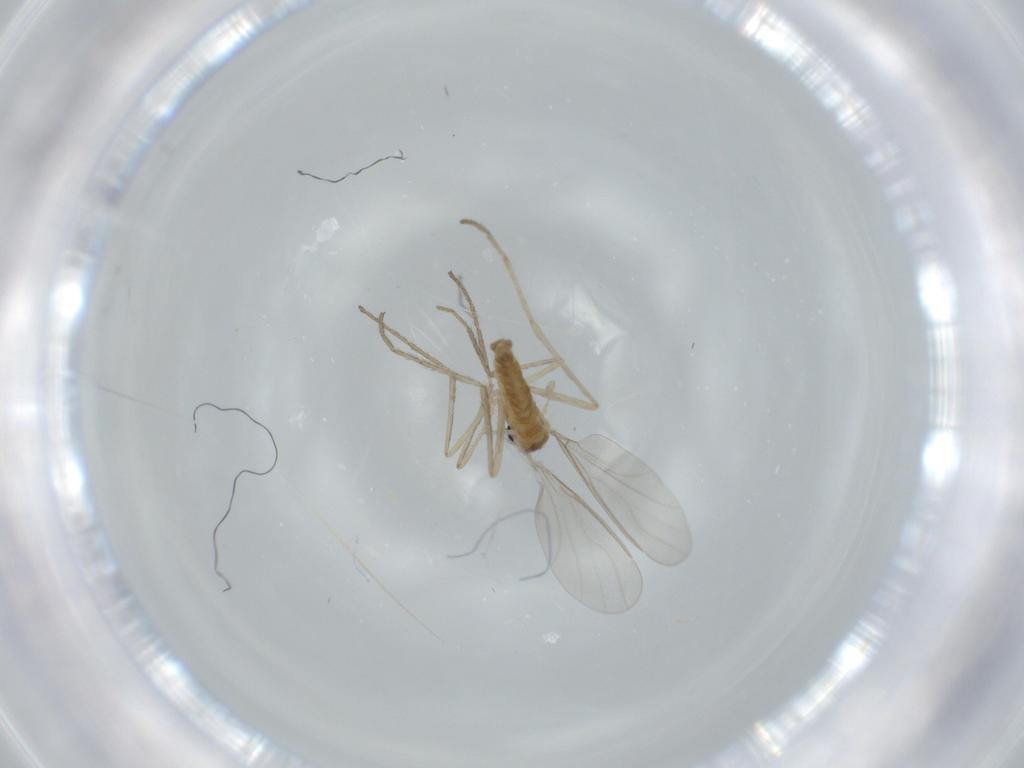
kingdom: Animalia
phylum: Arthropoda
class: Insecta
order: Diptera
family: Cecidomyiidae
